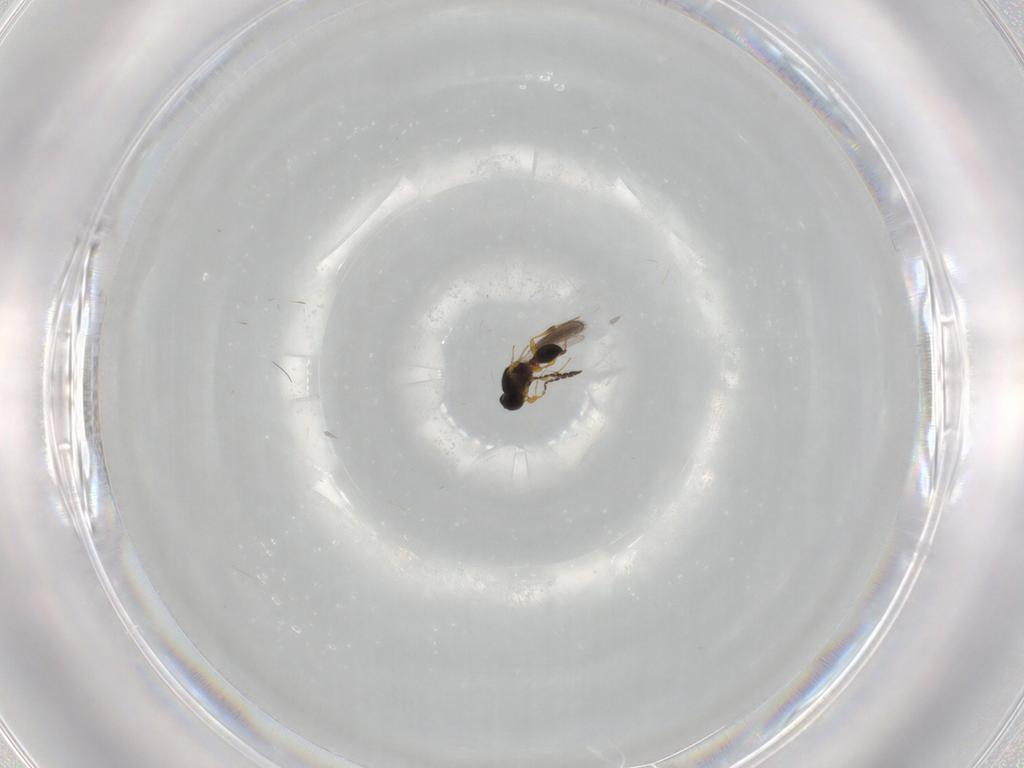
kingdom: Animalia
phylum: Arthropoda
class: Insecta
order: Hymenoptera
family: Platygastridae
